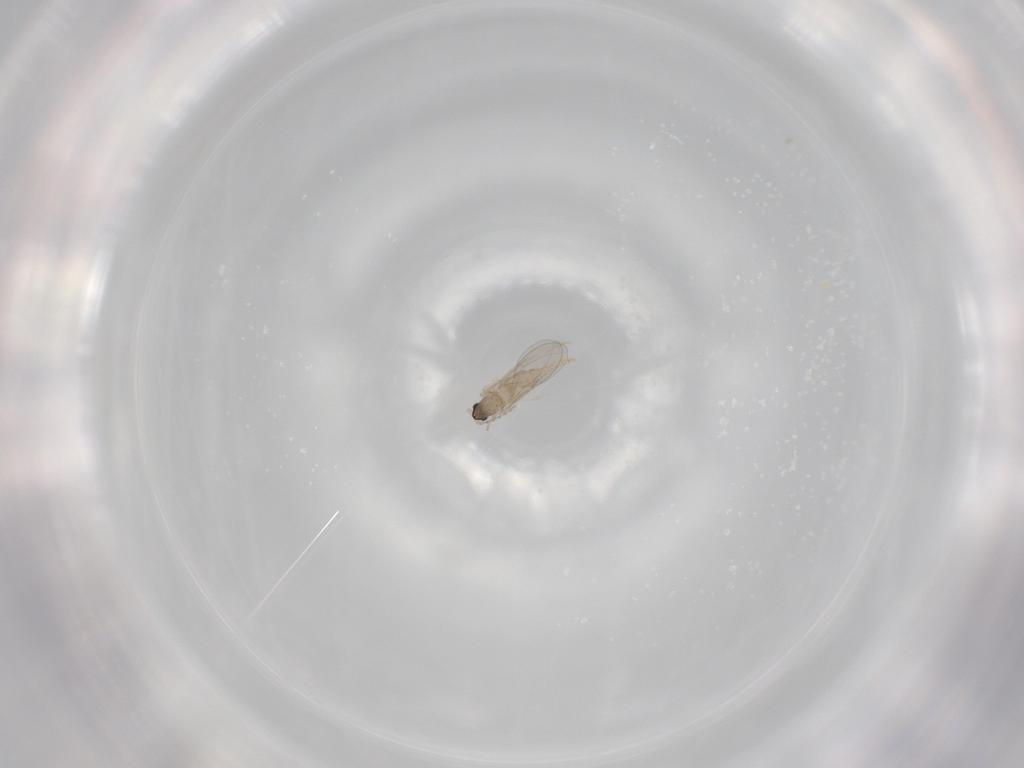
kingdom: Animalia
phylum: Arthropoda
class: Insecta
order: Diptera
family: Cecidomyiidae
